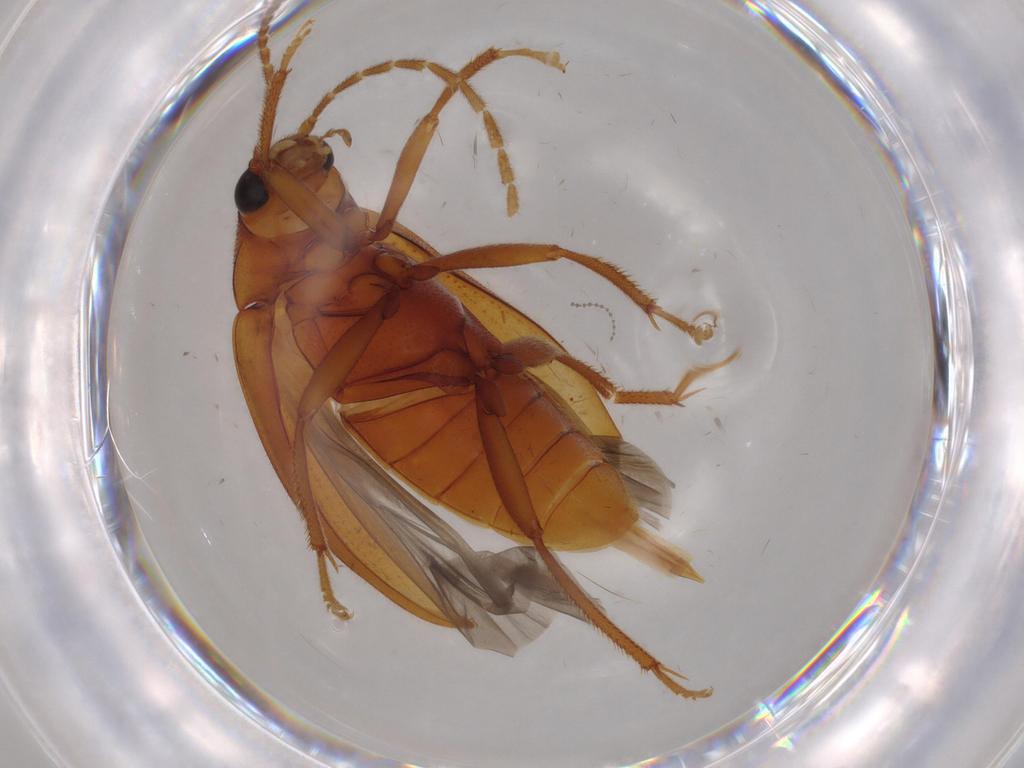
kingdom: Animalia
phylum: Arthropoda
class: Insecta
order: Coleoptera
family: Ptilodactylidae
